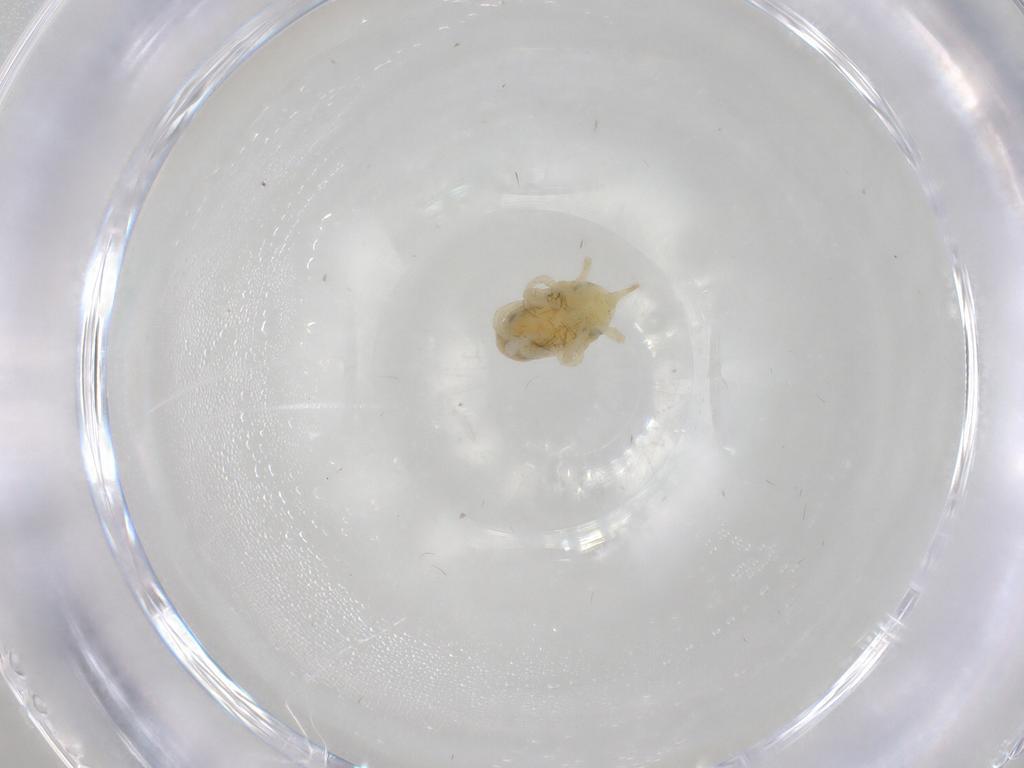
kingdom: Animalia
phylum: Arthropoda
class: Arachnida
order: Trombidiformes
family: Bdellidae
